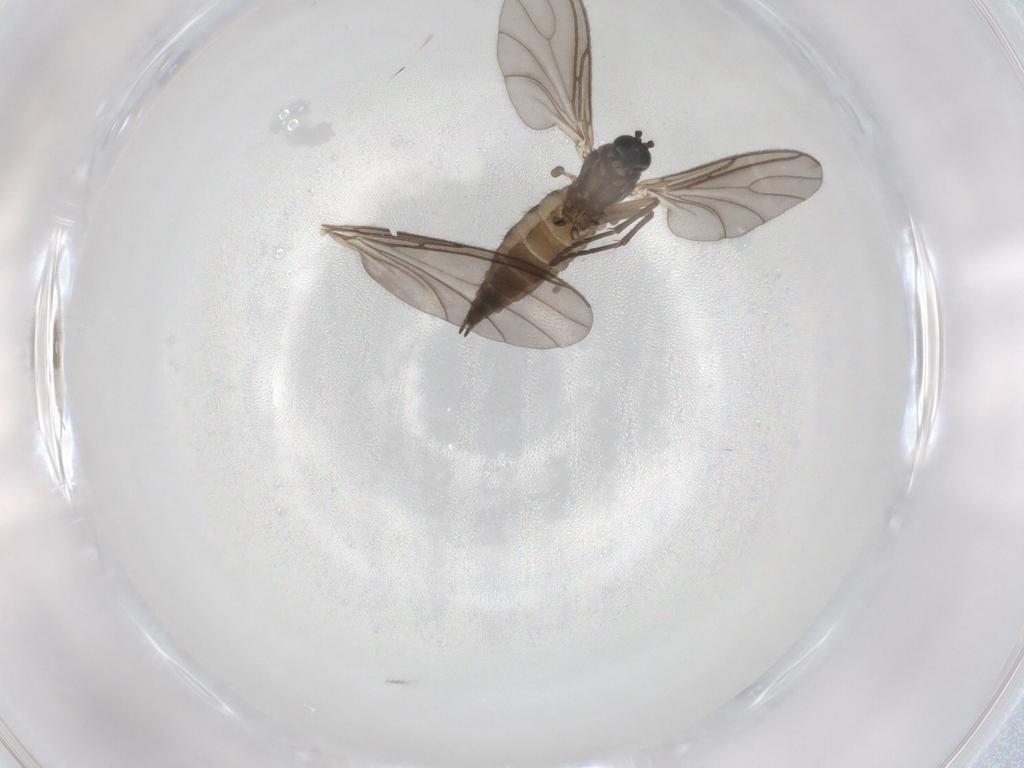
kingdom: Animalia
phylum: Arthropoda
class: Insecta
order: Diptera
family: Sciaridae
